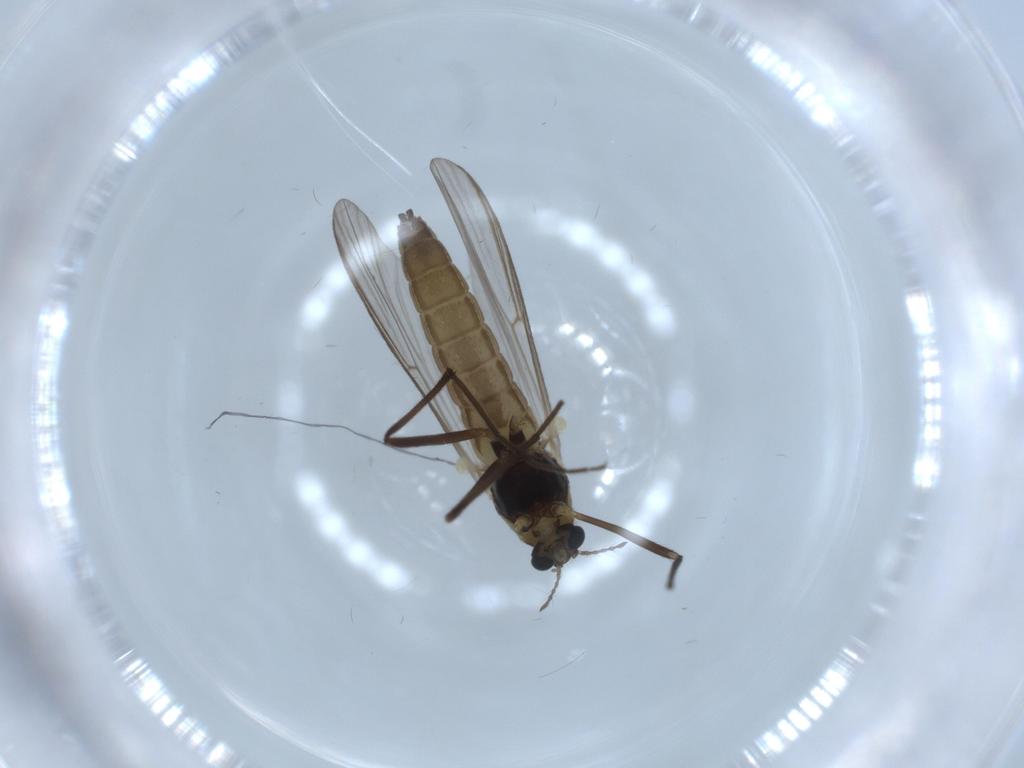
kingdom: Animalia
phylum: Arthropoda
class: Insecta
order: Diptera
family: Chironomidae
